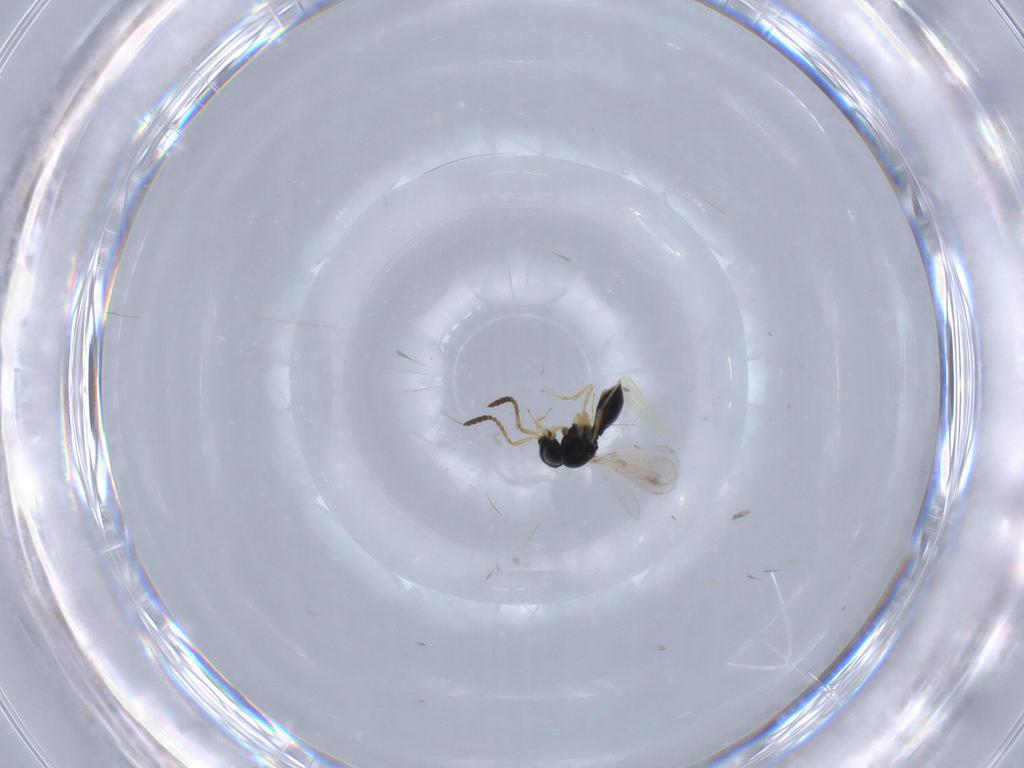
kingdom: Animalia
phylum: Arthropoda
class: Insecta
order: Hymenoptera
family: Scelionidae
